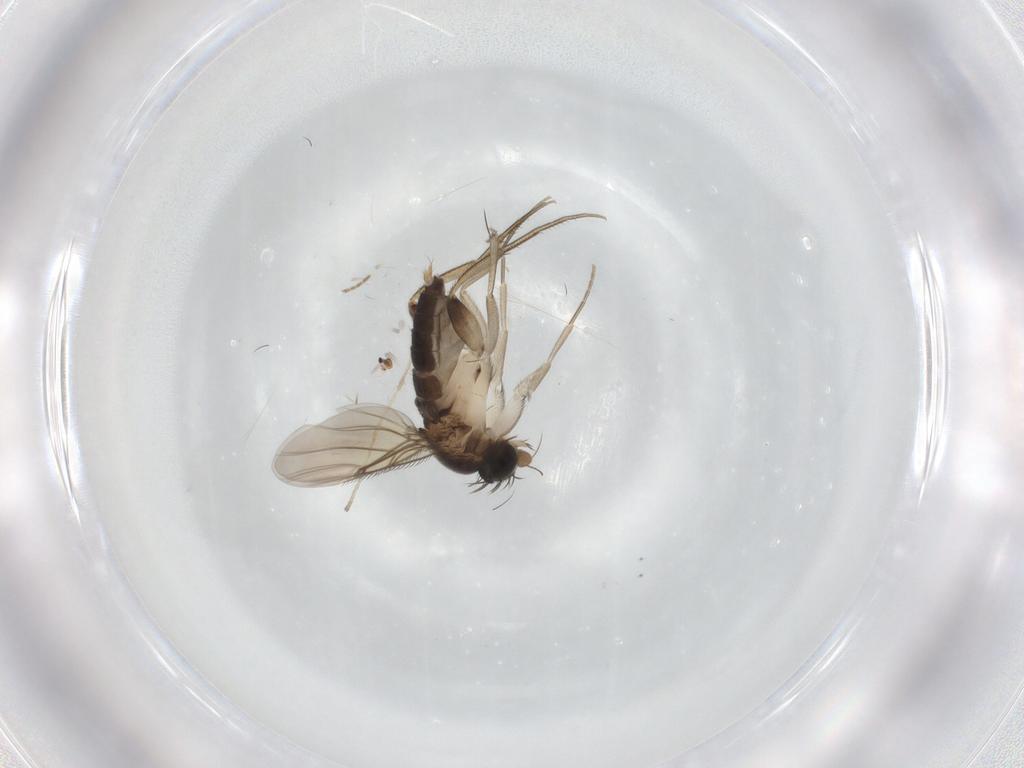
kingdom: Animalia
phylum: Arthropoda
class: Insecta
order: Diptera
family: Phoridae
